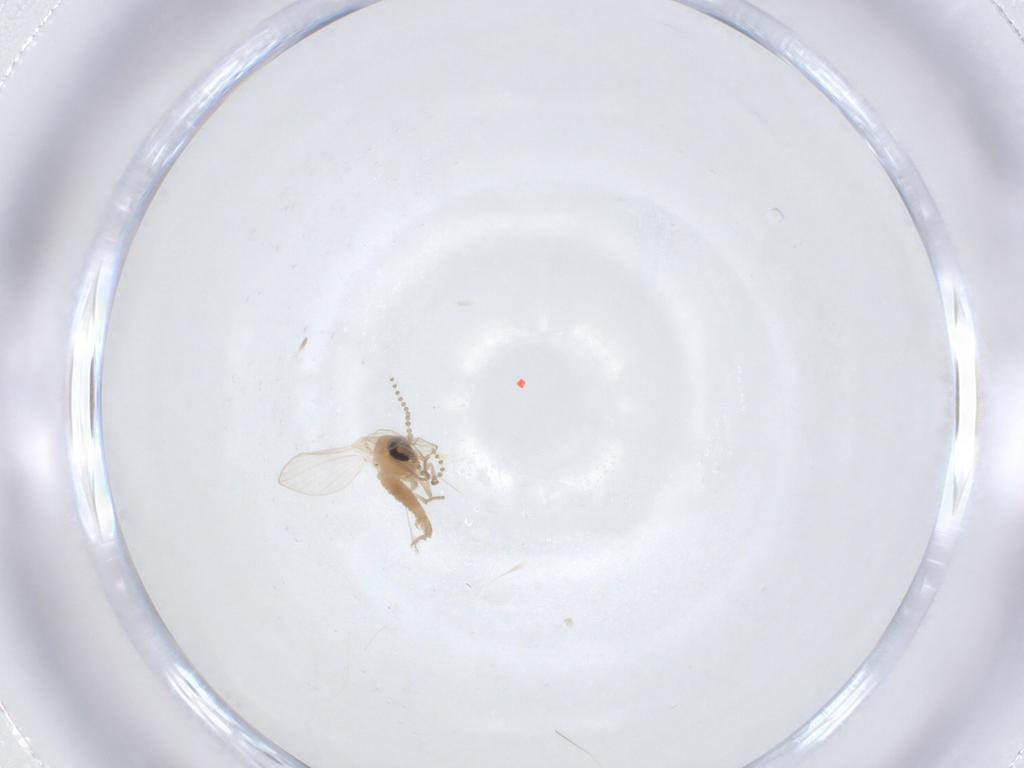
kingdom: Animalia
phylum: Arthropoda
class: Insecta
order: Diptera
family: Psychodidae
